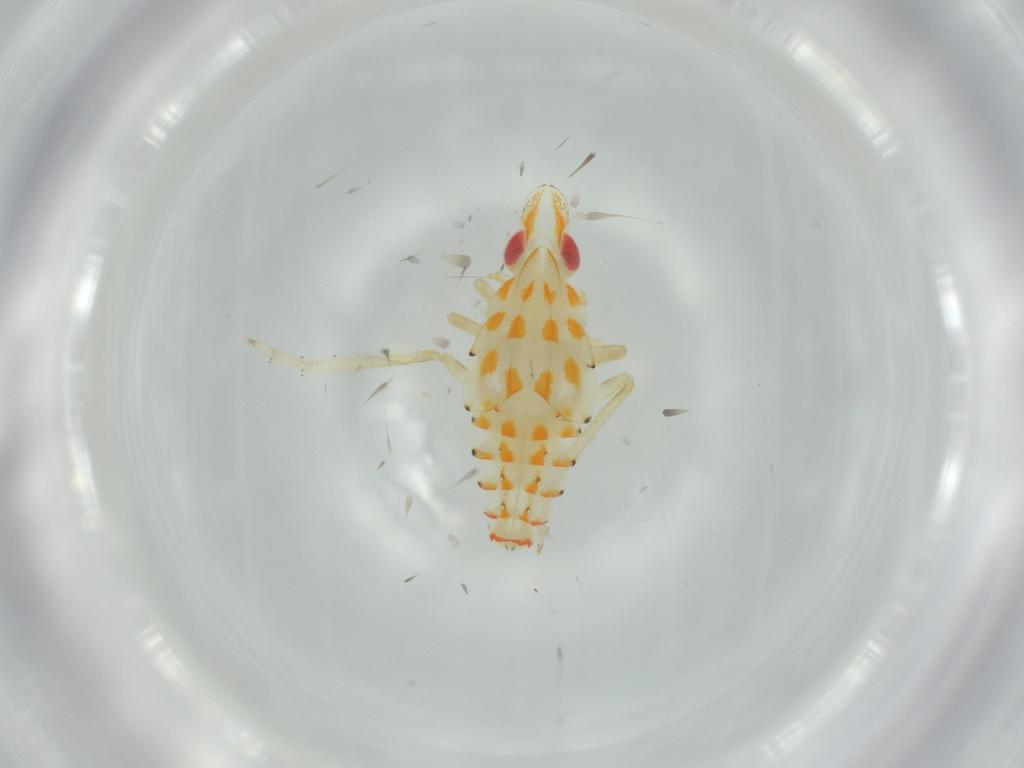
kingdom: Animalia
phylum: Arthropoda
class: Insecta
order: Hemiptera
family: Tropiduchidae
